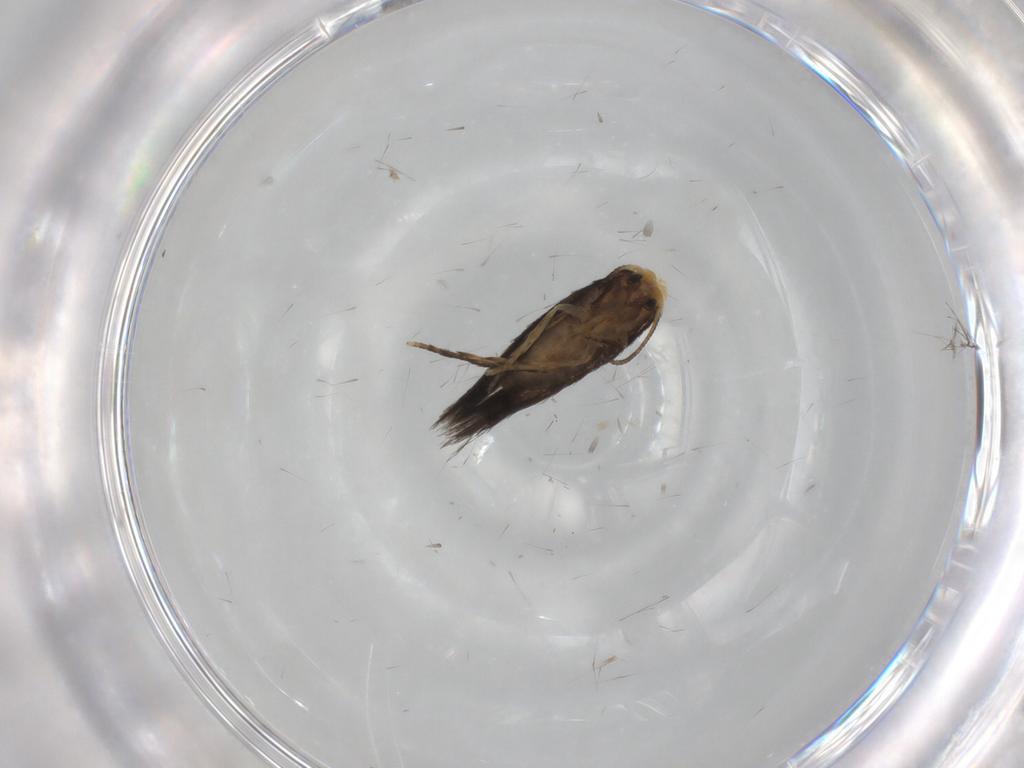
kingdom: Animalia
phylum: Arthropoda
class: Insecta
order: Lepidoptera
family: Nepticulidae
